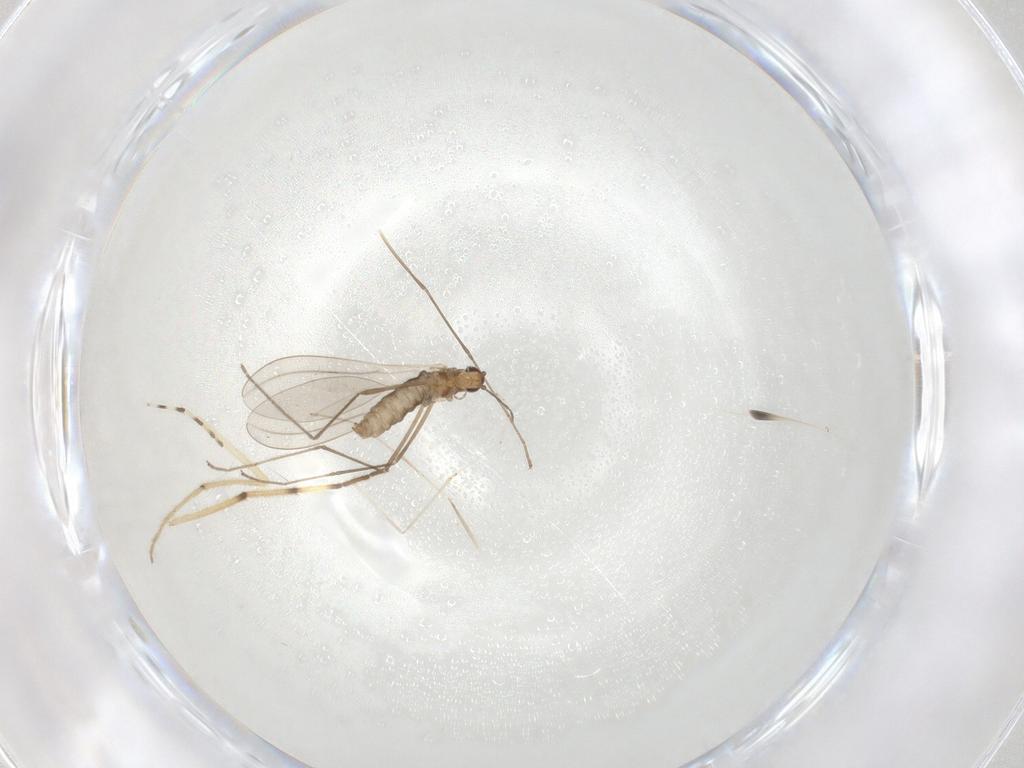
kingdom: Animalia
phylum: Arthropoda
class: Insecta
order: Diptera
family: Cecidomyiidae
